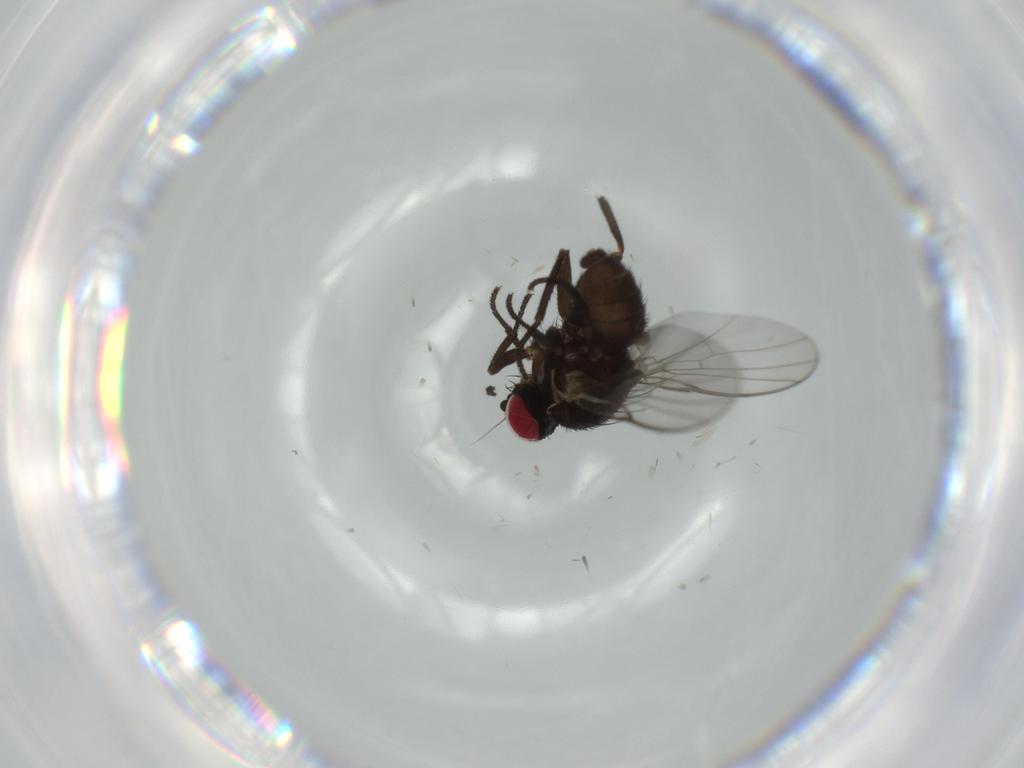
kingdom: Animalia
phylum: Arthropoda
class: Insecta
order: Diptera
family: Agromyzidae
